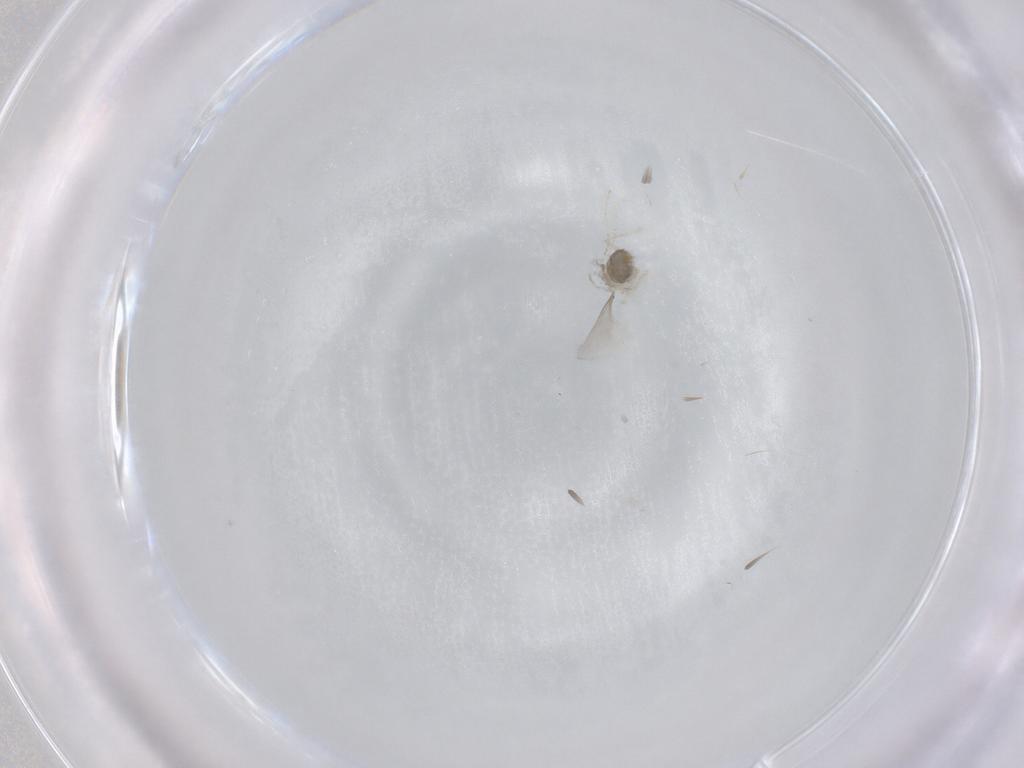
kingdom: Animalia
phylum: Arthropoda
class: Insecta
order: Diptera
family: Cecidomyiidae
